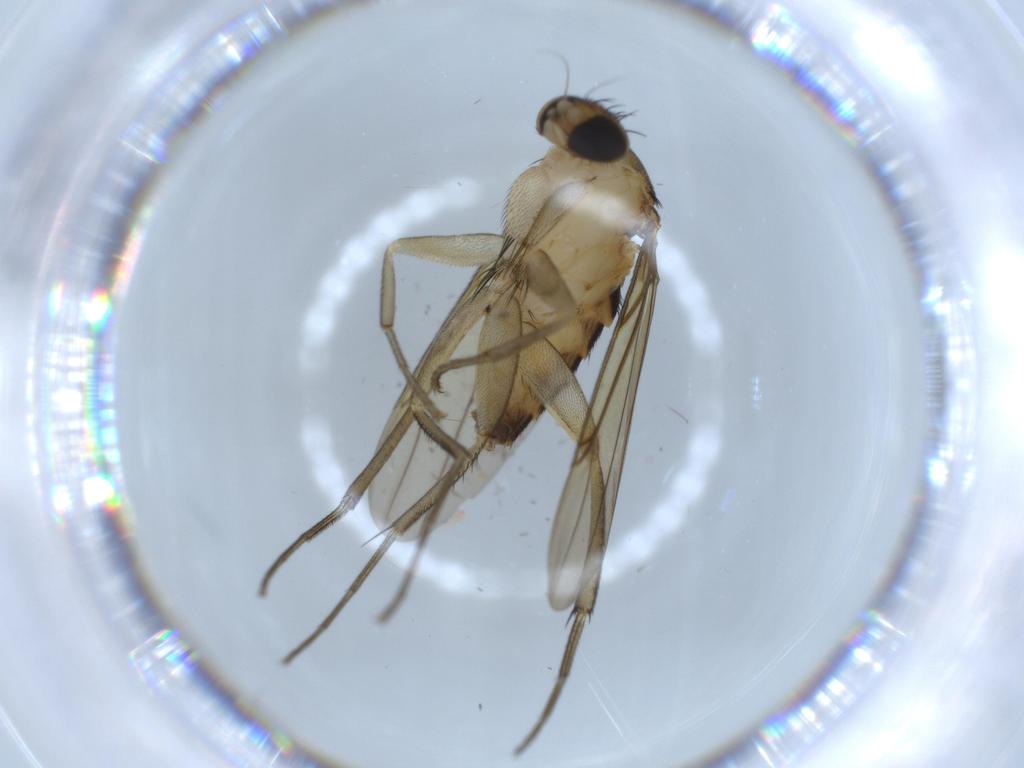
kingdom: Animalia
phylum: Arthropoda
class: Insecta
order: Diptera
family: Phoridae
